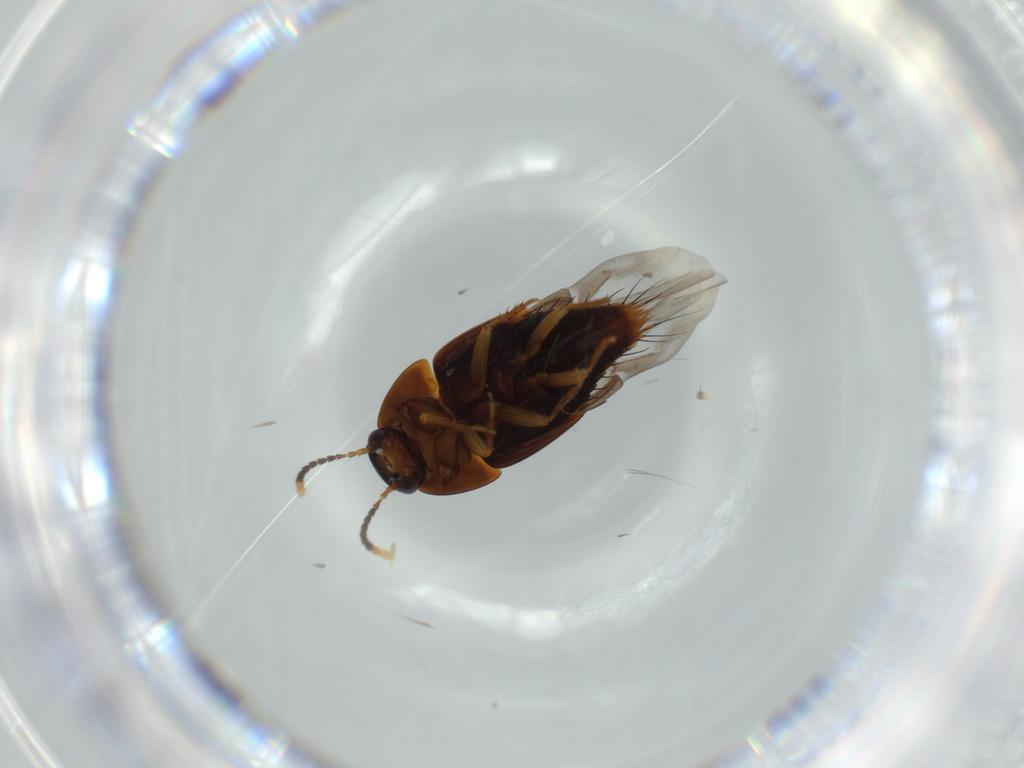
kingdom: Animalia
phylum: Arthropoda
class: Insecta
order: Coleoptera
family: Staphylinidae
